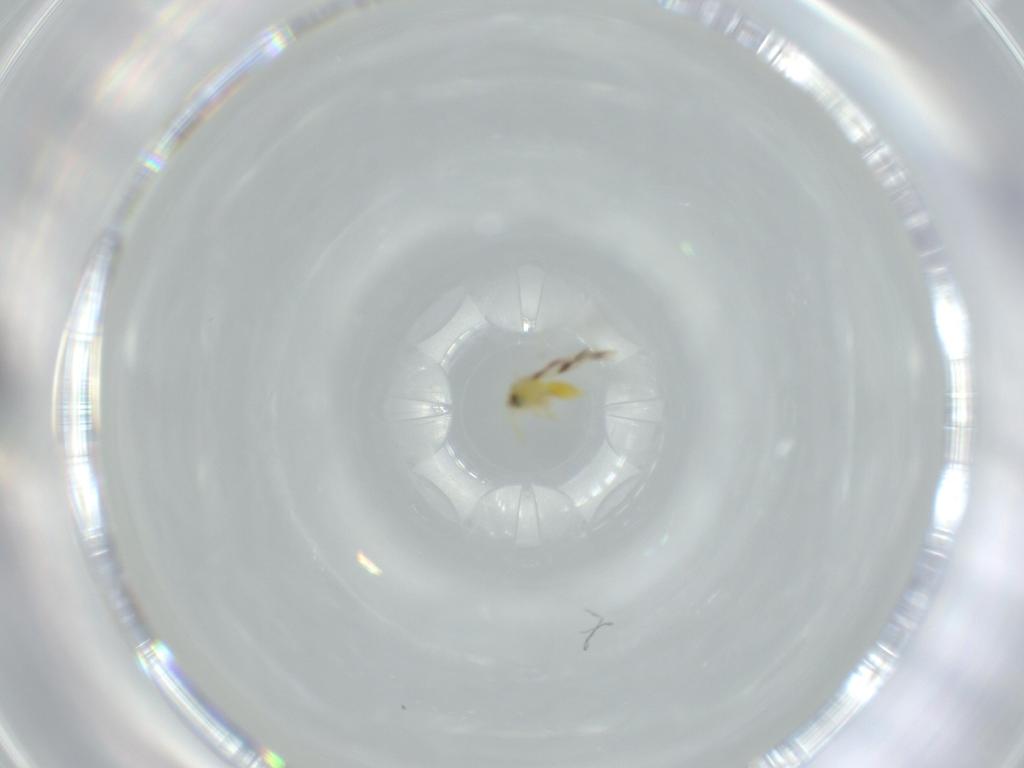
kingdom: Animalia
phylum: Arthropoda
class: Insecta
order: Hemiptera
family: Aleyrodidae
